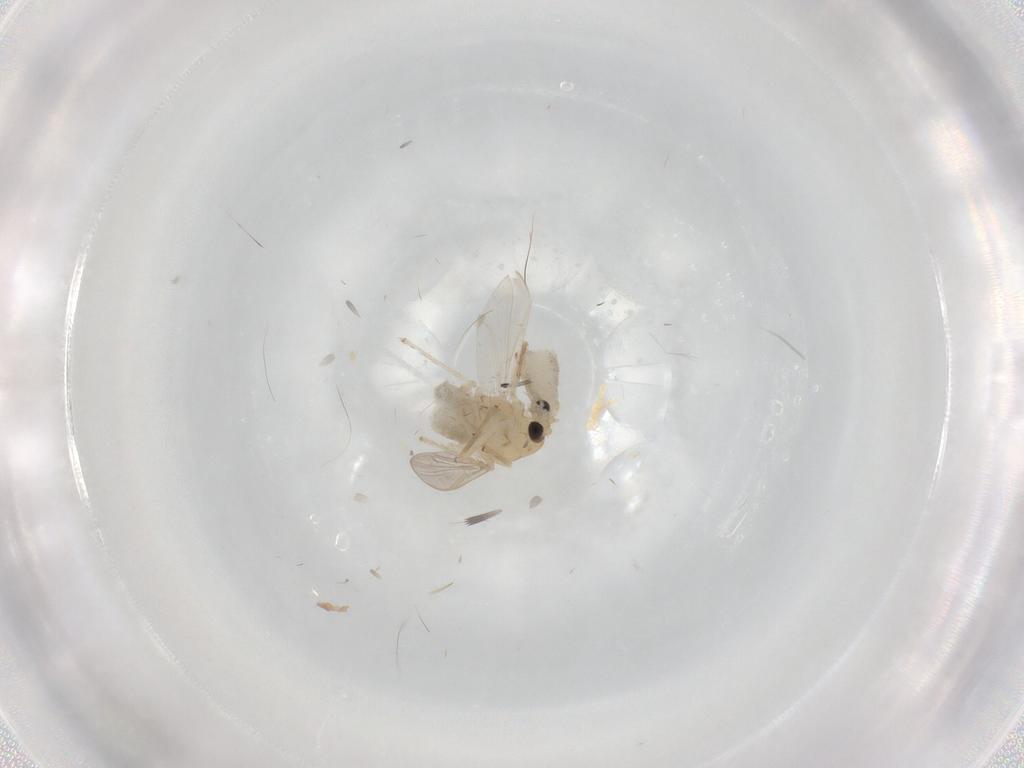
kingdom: Animalia
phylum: Arthropoda
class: Insecta
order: Diptera
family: Chironomidae
